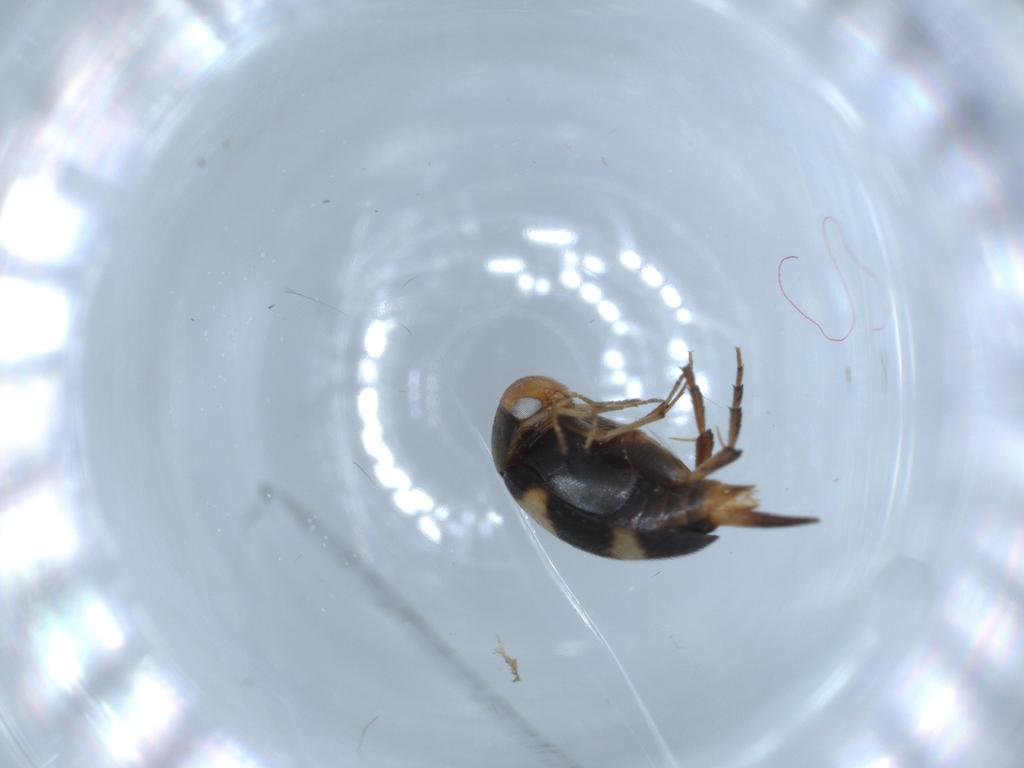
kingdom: Animalia
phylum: Arthropoda
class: Insecta
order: Coleoptera
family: Mordellidae
